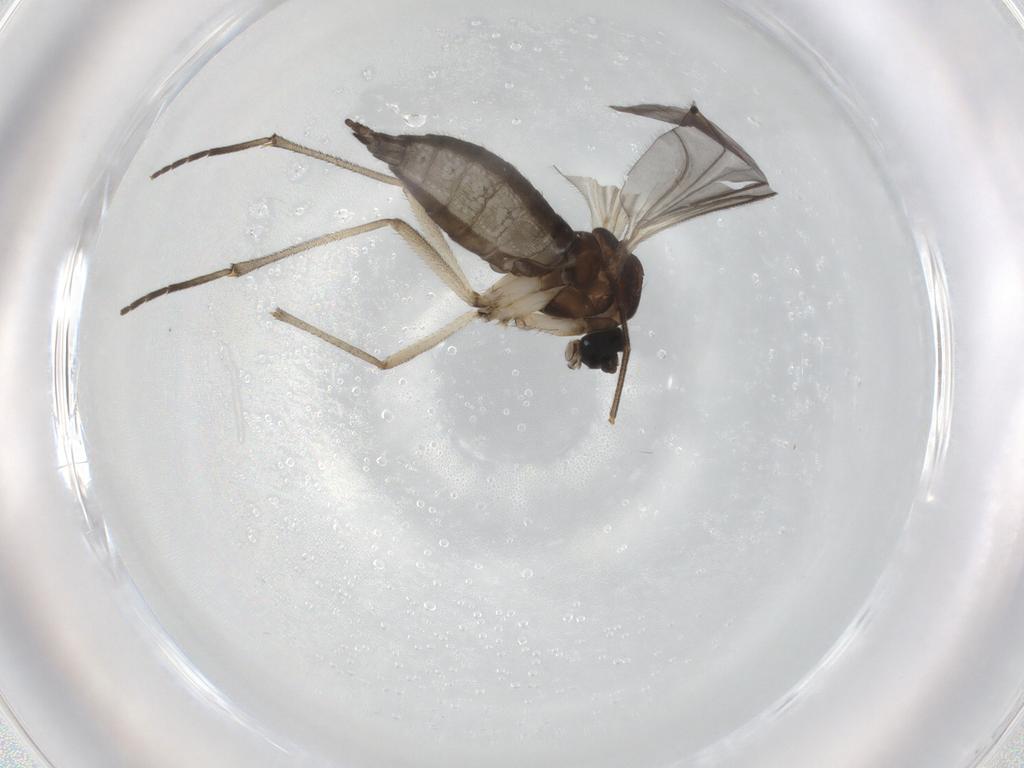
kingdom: Animalia
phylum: Arthropoda
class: Insecta
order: Diptera
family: Sciaridae
